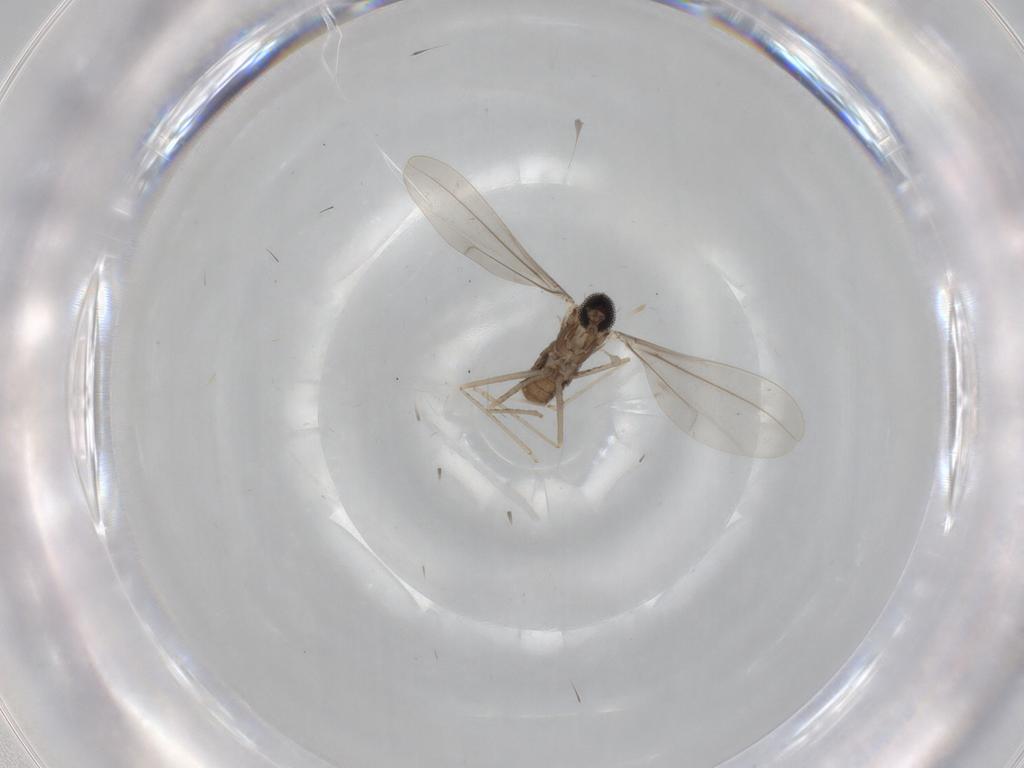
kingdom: Animalia
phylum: Arthropoda
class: Insecta
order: Diptera
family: Cecidomyiidae
